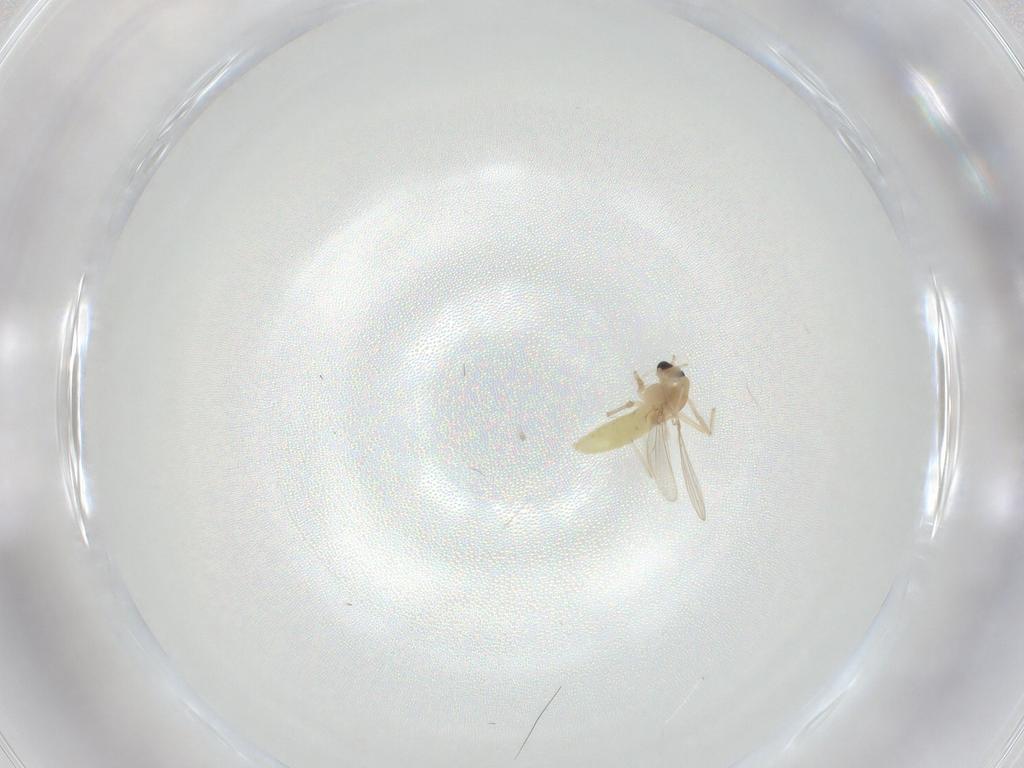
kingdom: Animalia
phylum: Arthropoda
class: Insecta
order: Diptera
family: Chironomidae
